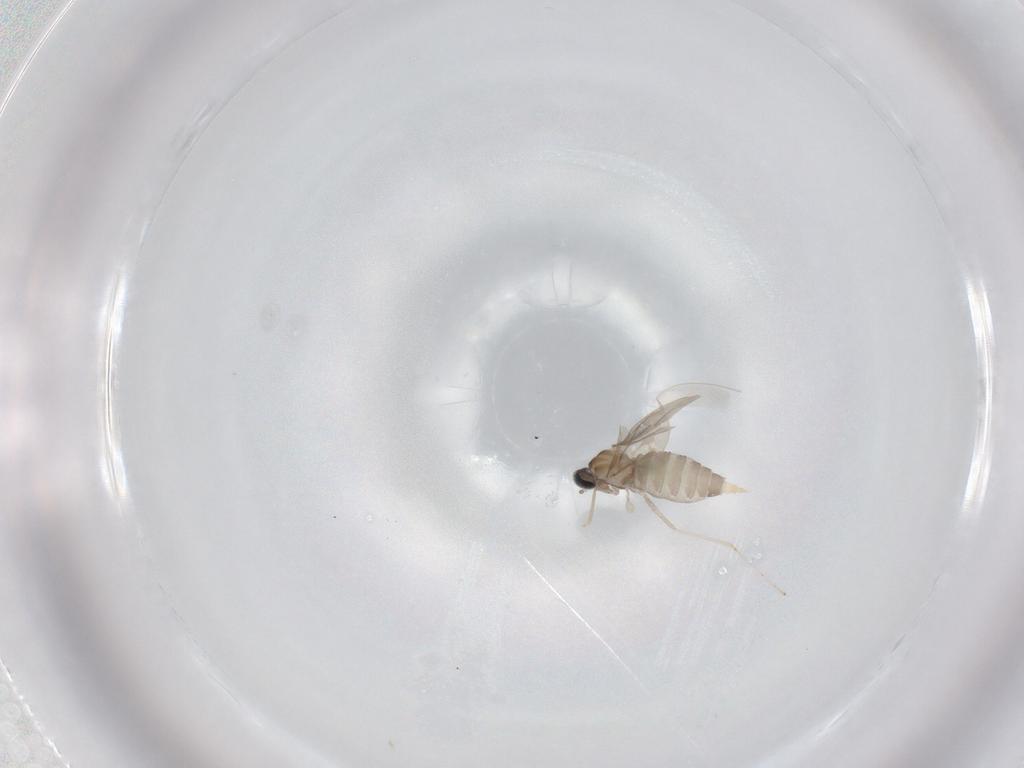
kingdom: Animalia
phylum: Arthropoda
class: Insecta
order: Diptera
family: Cecidomyiidae
